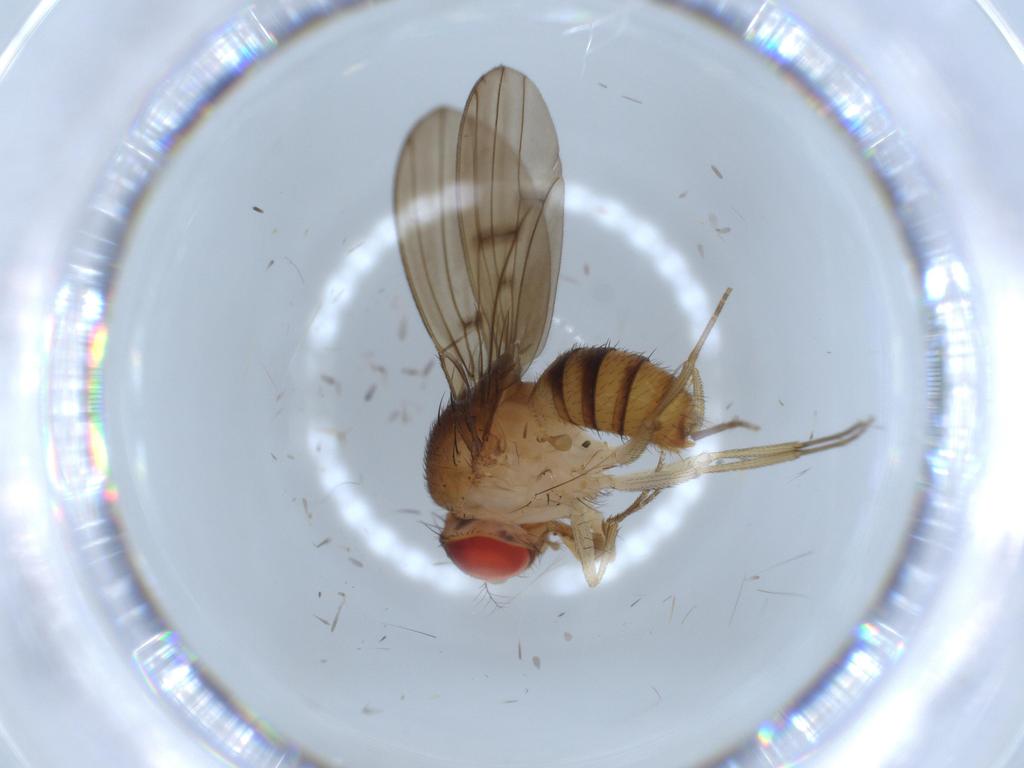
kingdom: Animalia
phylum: Arthropoda
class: Insecta
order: Diptera
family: Drosophilidae
